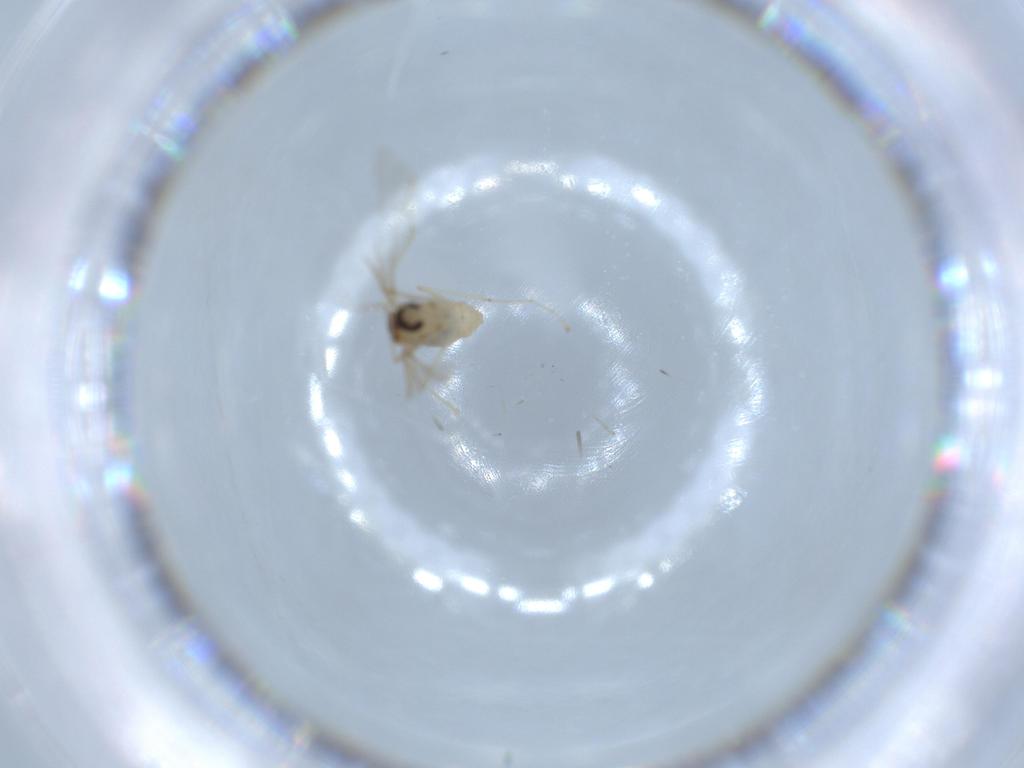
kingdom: Animalia
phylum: Arthropoda
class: Insecta
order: Diptera
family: Cecidomyiidae
